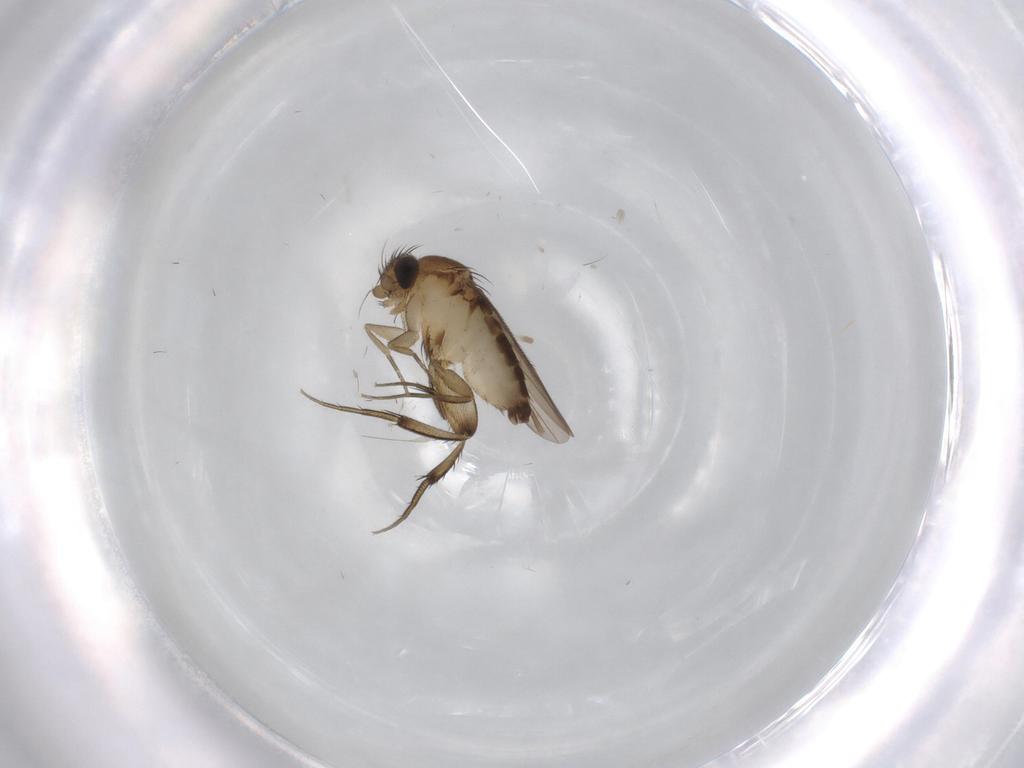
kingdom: Animalia
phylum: Arthropoda
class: Insecta
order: Diptera
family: Phoridae
